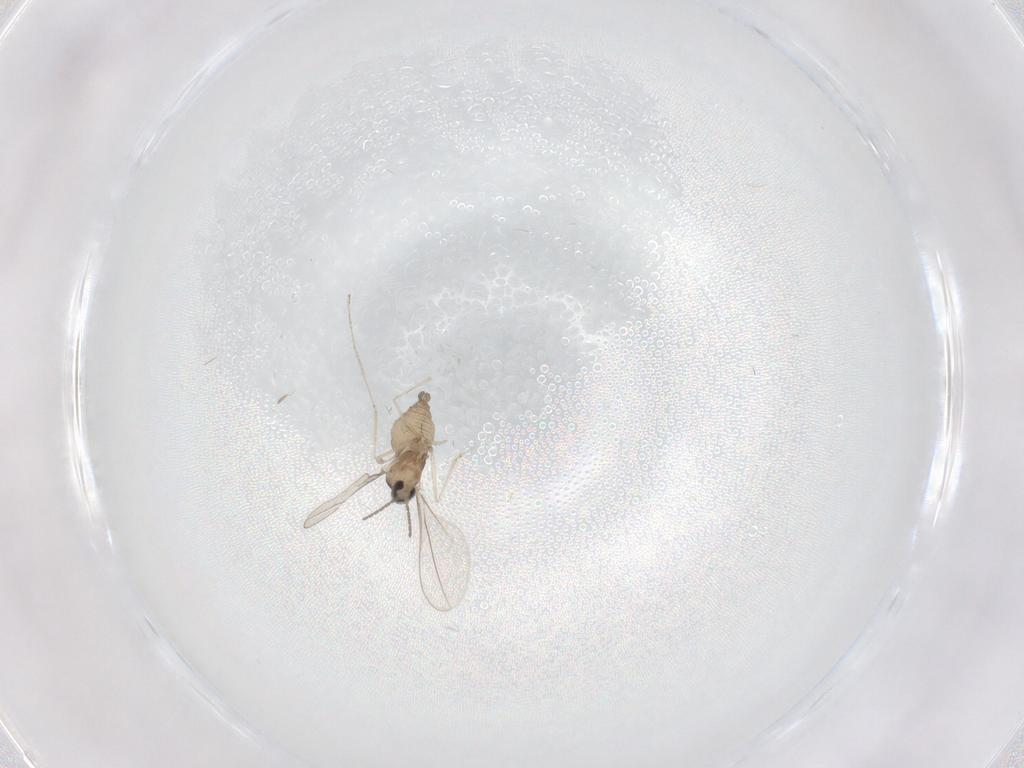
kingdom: Animalia
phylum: Arthropoda
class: Insecta
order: Diptera
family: Cecidomyiidae
